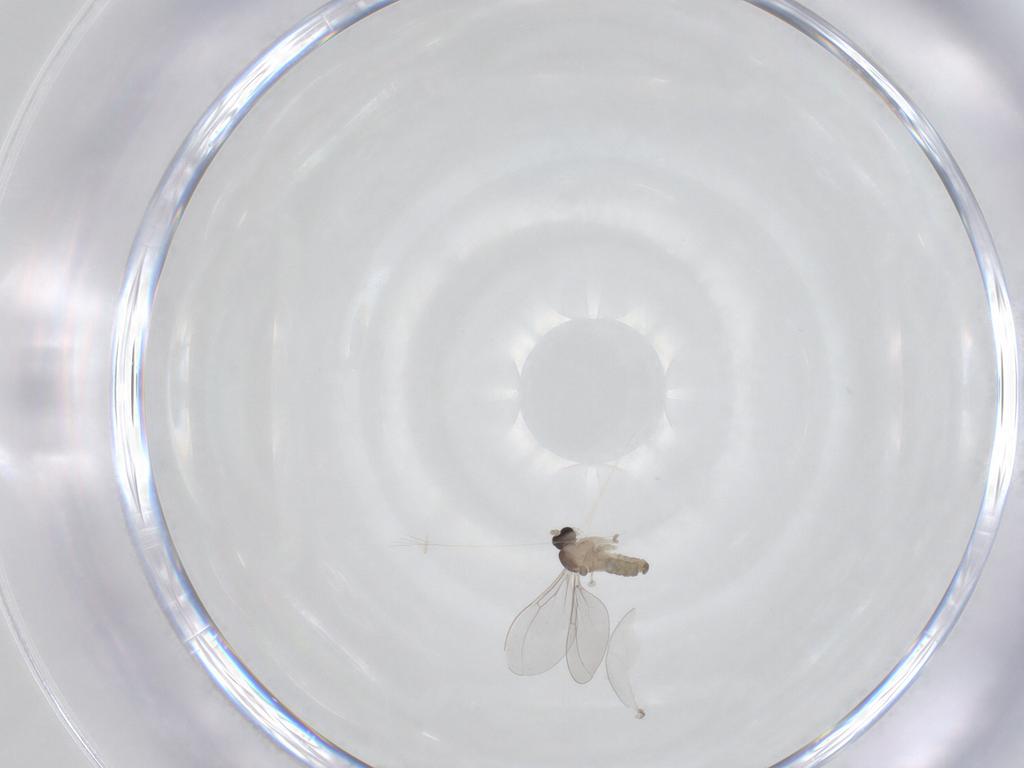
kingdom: Animalia
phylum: Arthropoda
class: Insecta
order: Diptera
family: Cecidomyiidae
